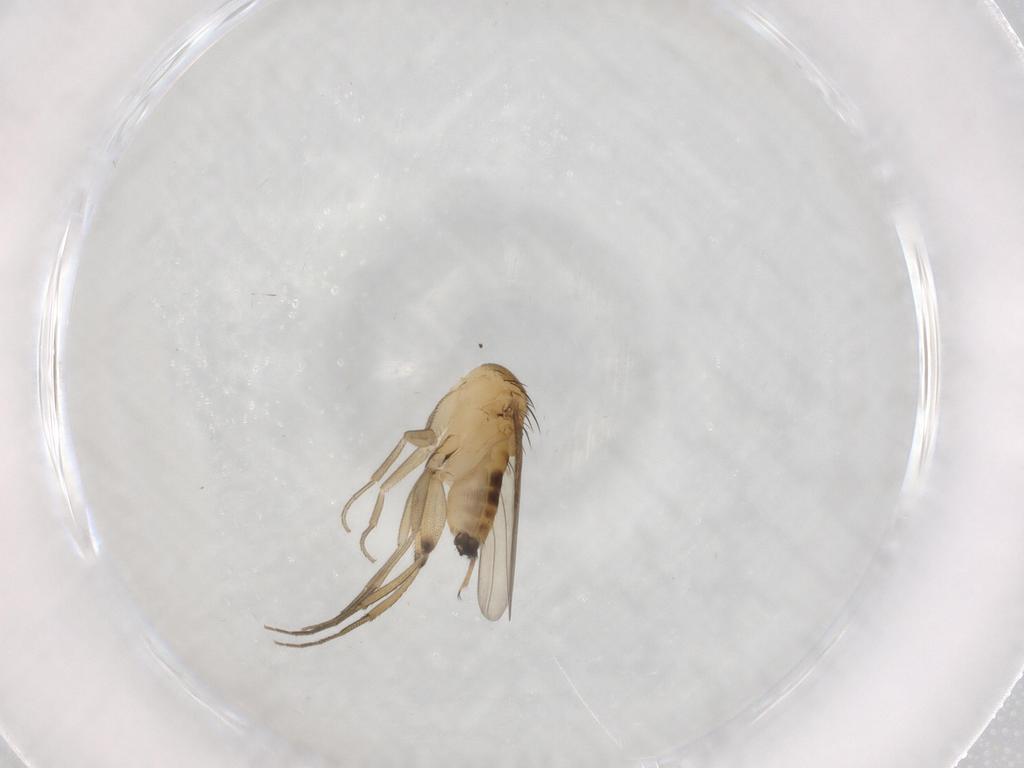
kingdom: Animalia
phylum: Arthropoda
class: Insecta
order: Diptera
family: Phoridae
